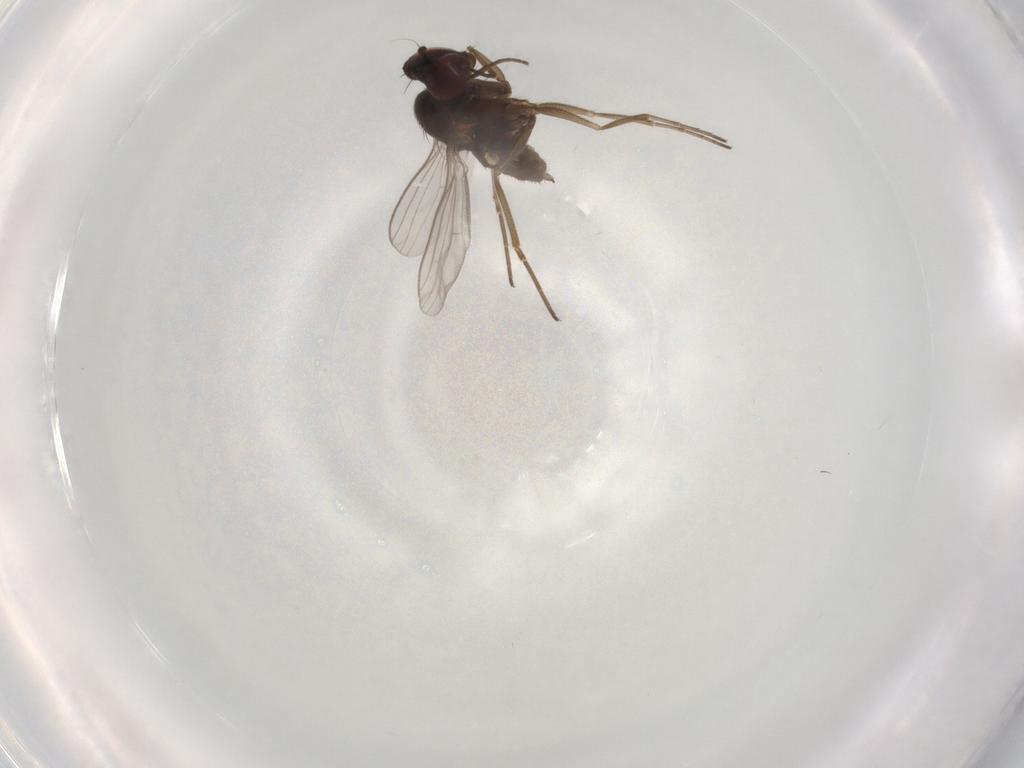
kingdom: Animalia
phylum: Arthropoda
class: Insecta
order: Diptera
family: Dolichopodidae
